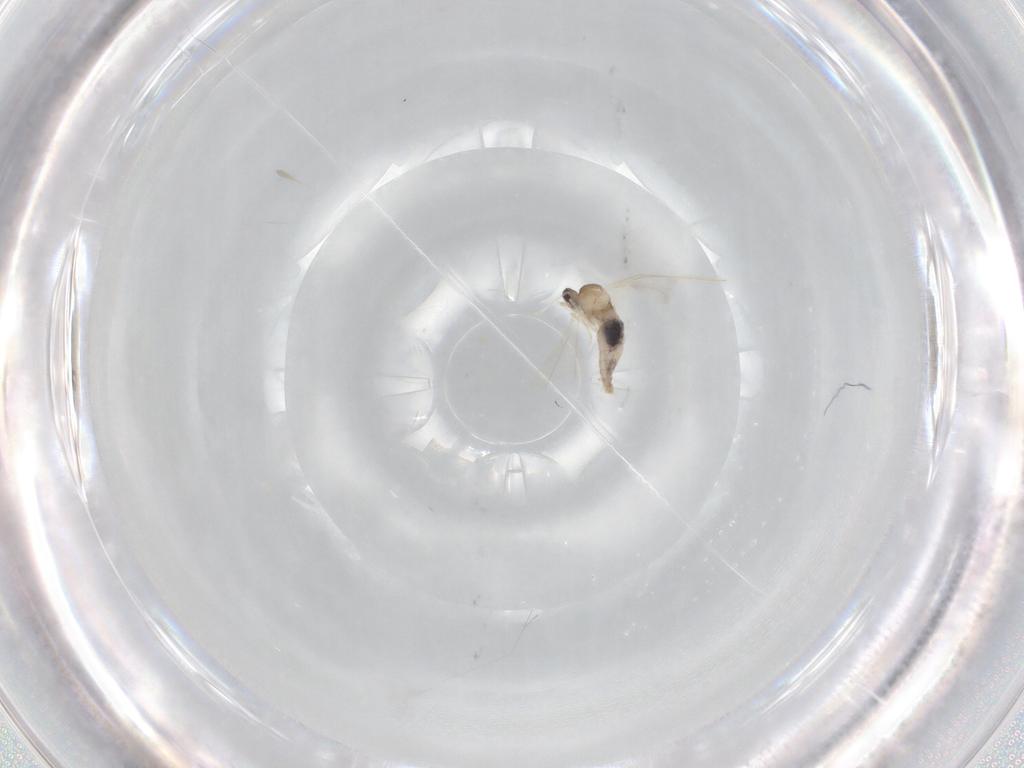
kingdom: Animalia
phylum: Arthropoda
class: Insecta
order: Diptera
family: Cecidomyiidae
